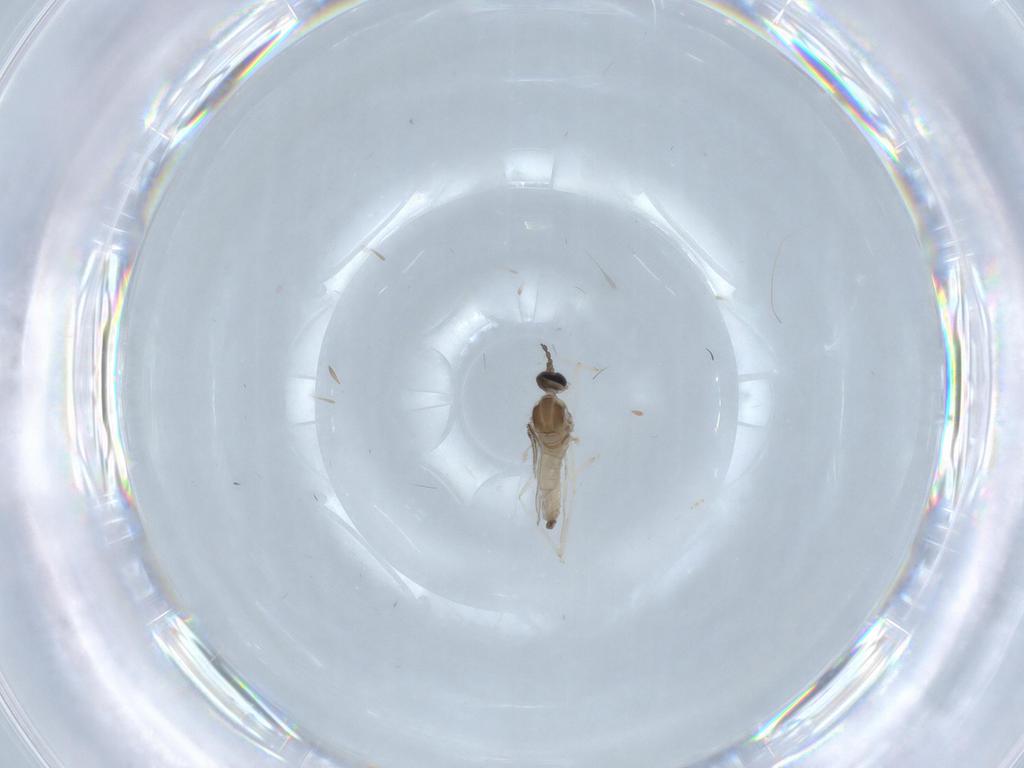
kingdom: Animalia
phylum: Arthropoda
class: Insecta
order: Diptera
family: Cecidomyiidae
